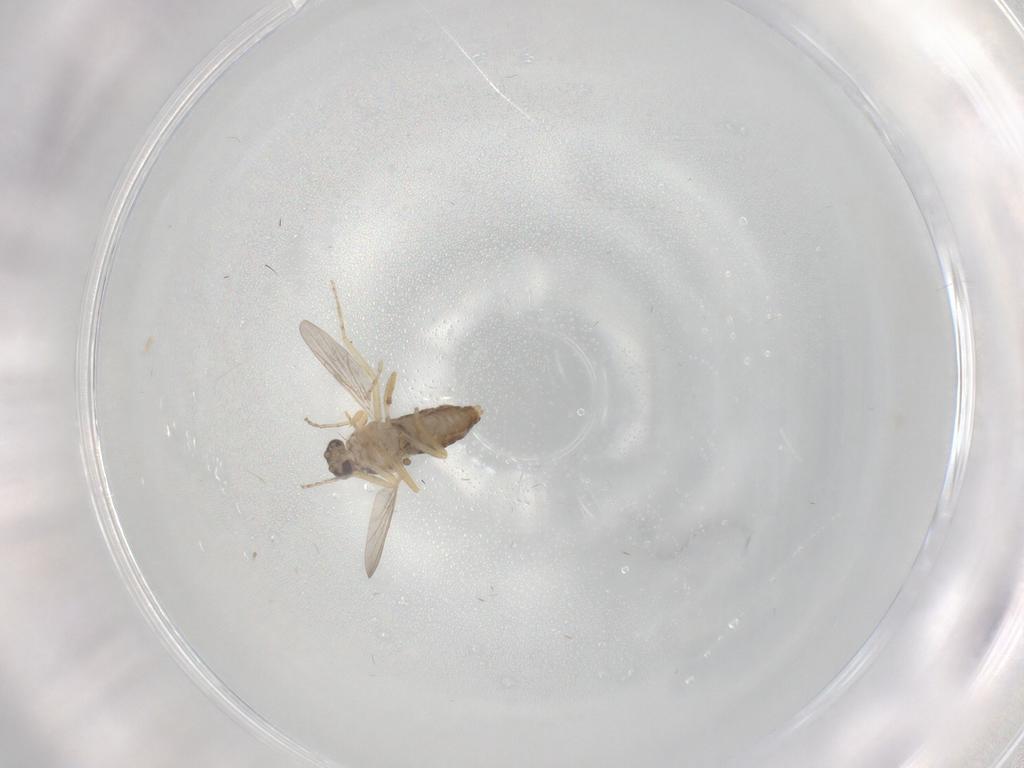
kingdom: Animalia
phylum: Arthropoda
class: Insecta
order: Diptera
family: Ceratopogonidae
